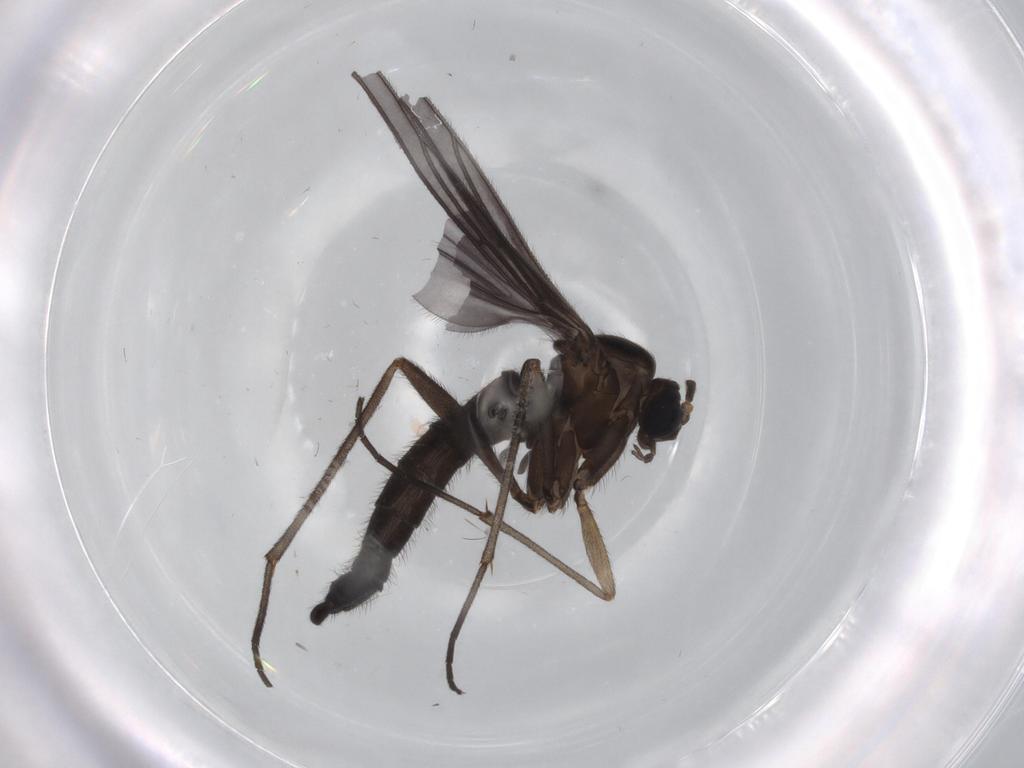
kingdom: Animalia
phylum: Arthropoda
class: Insecta
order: Diptera
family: Sciaridae
